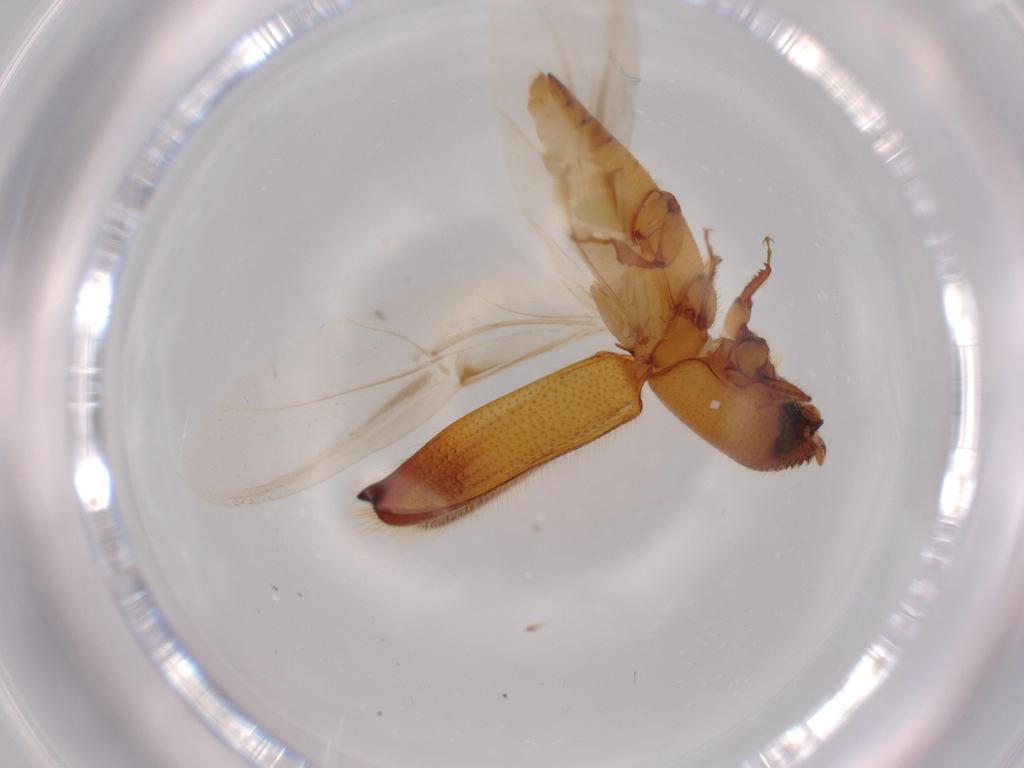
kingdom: Animalia
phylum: Arthropoda
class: Insecta
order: Coleoptera
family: Curculionidae
